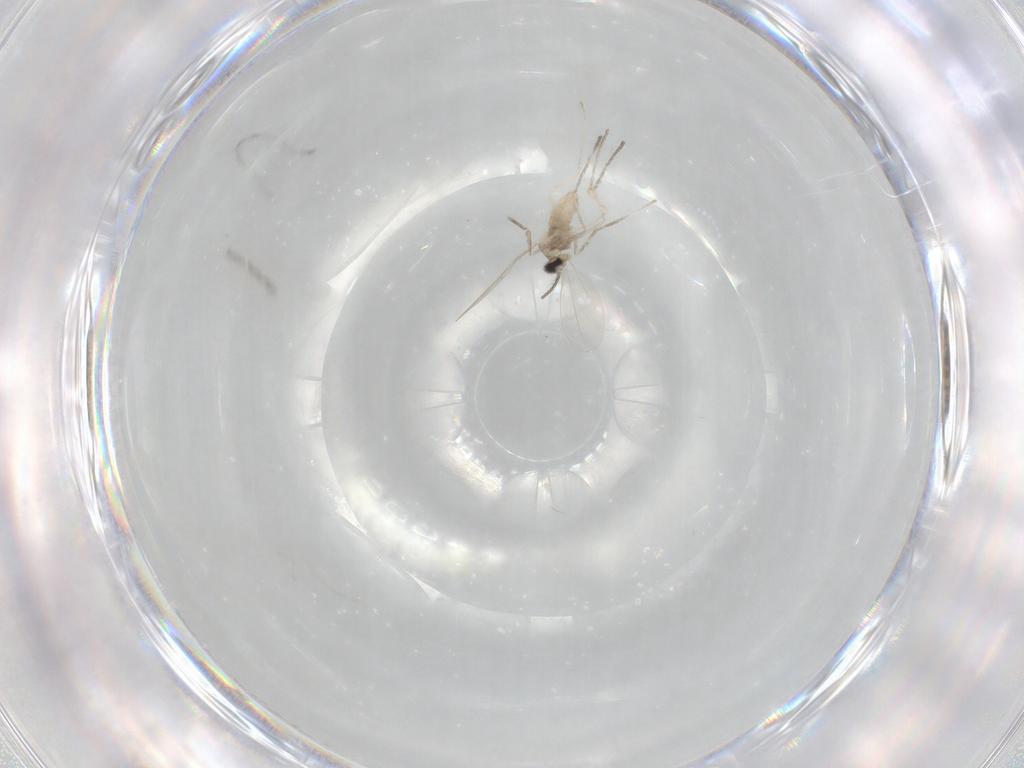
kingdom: Animalia
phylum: Arthropoda
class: Insecta
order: Diptera
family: Cecidomyiidae
